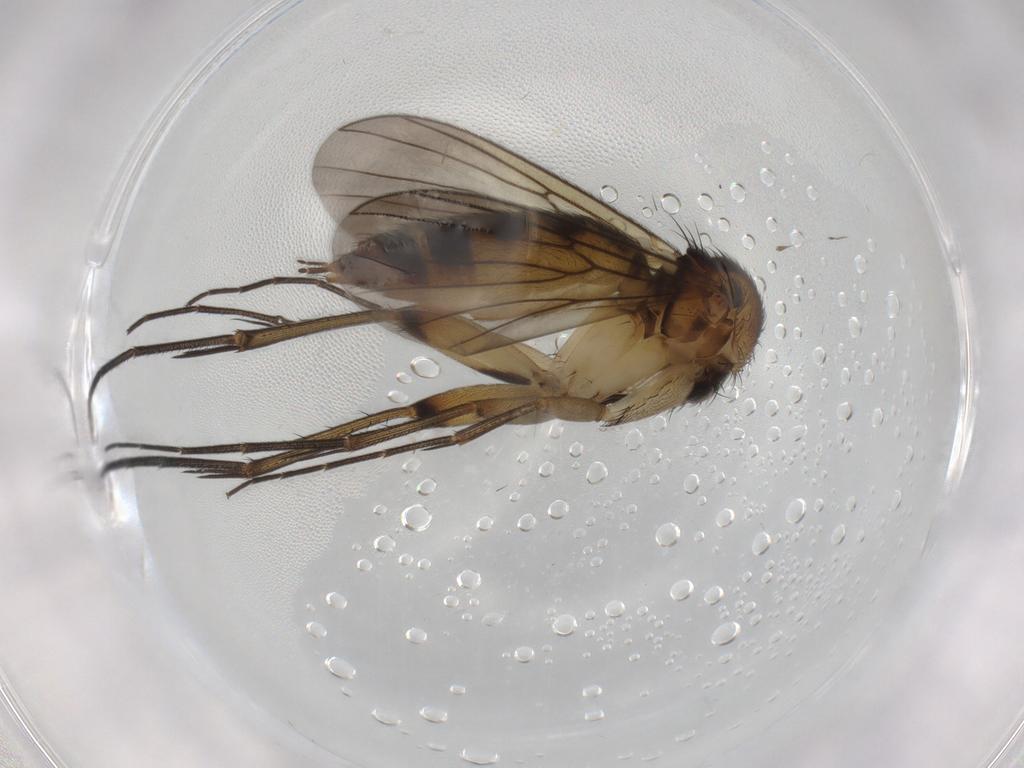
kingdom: Animalia
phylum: Arthropoda
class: Insecta
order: Diptera
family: Mycetophilidae
